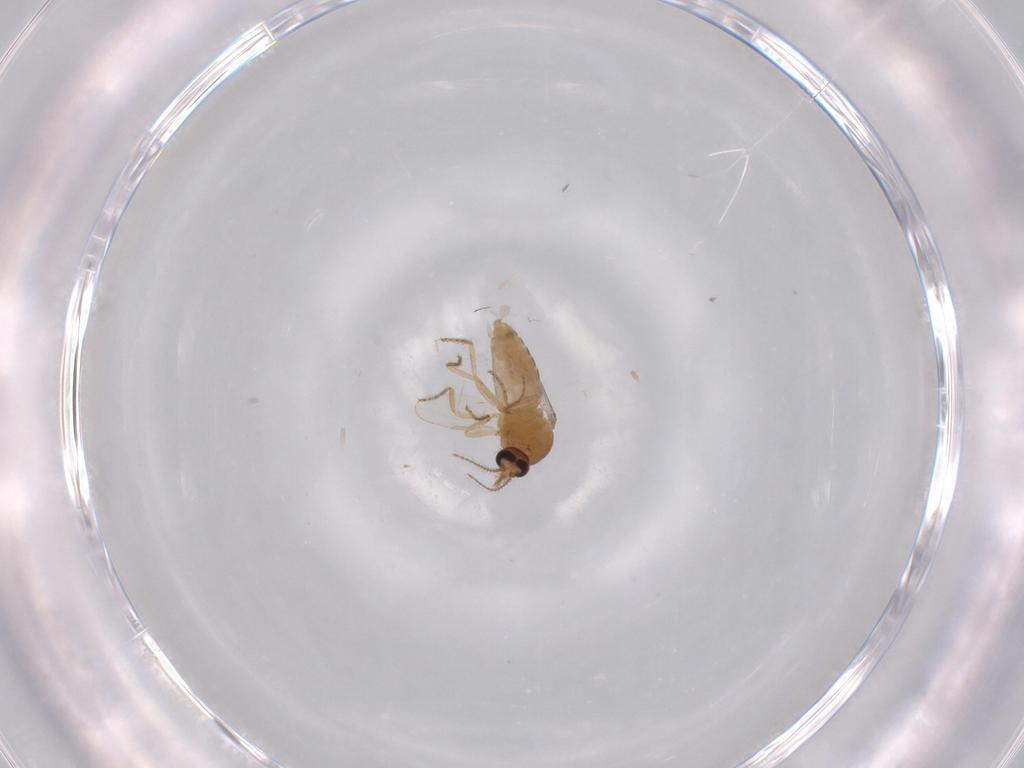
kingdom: Animalia
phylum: Arthropoda
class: Insecta
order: Diptera
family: Ceratopogonidae
